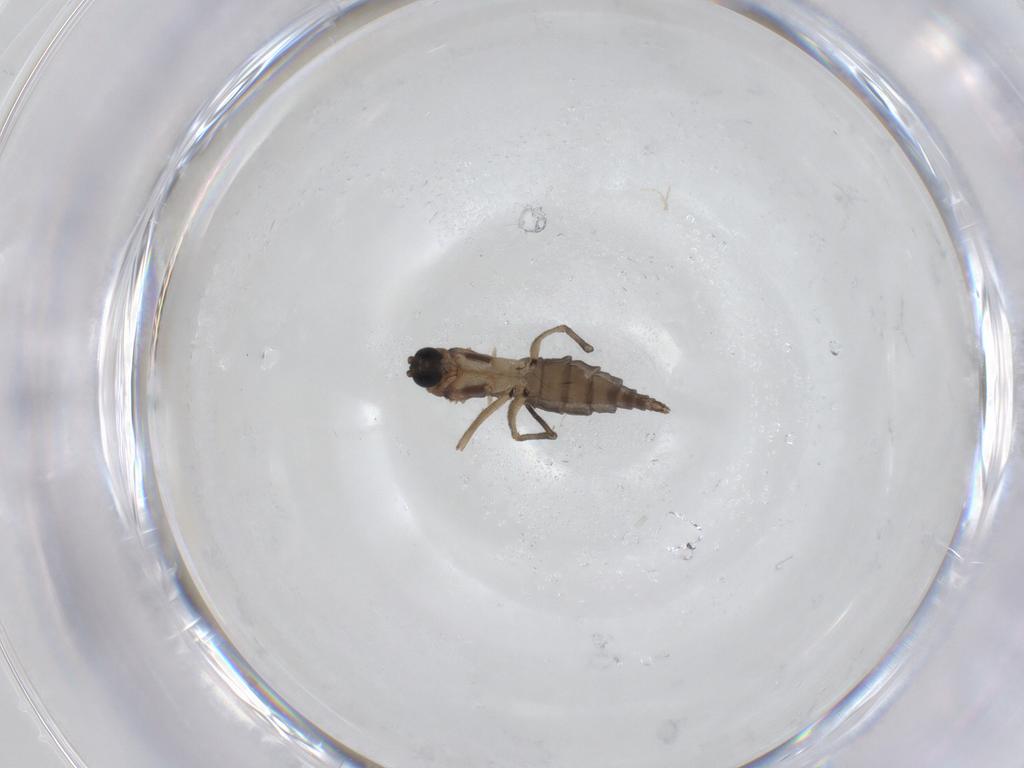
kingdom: Animalia
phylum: Arthropoda
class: Insecta
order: Diptera
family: Sciaridae
